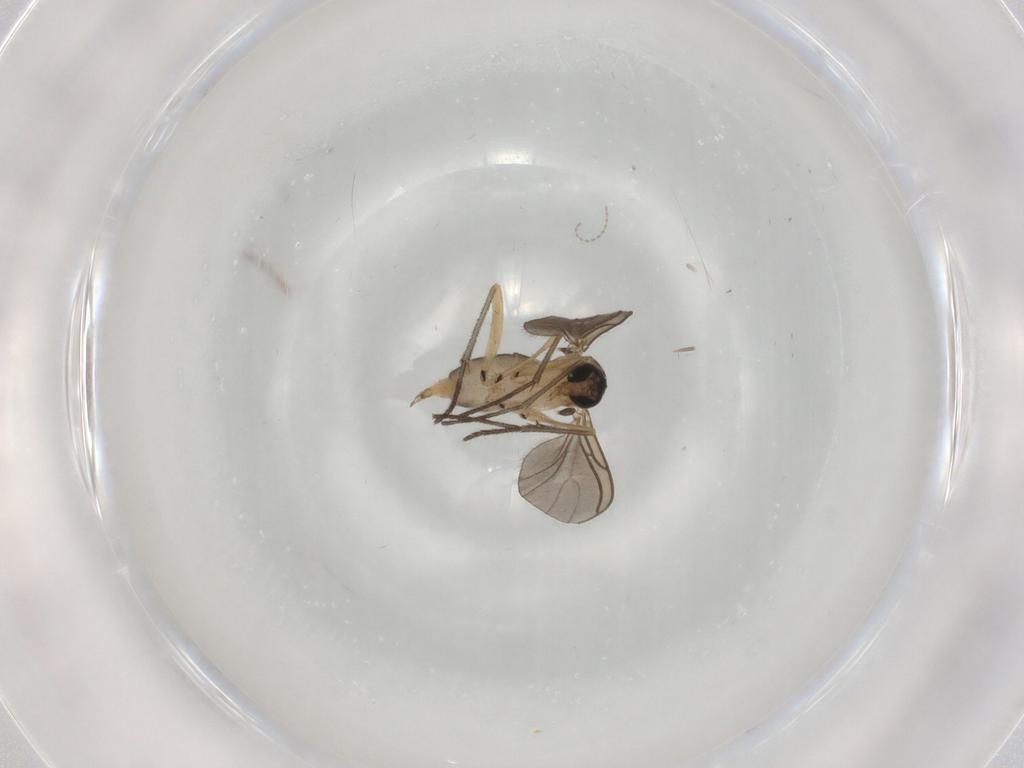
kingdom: Animalia
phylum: Arthropoda
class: Insecta
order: Diptera
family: Sciaridae
